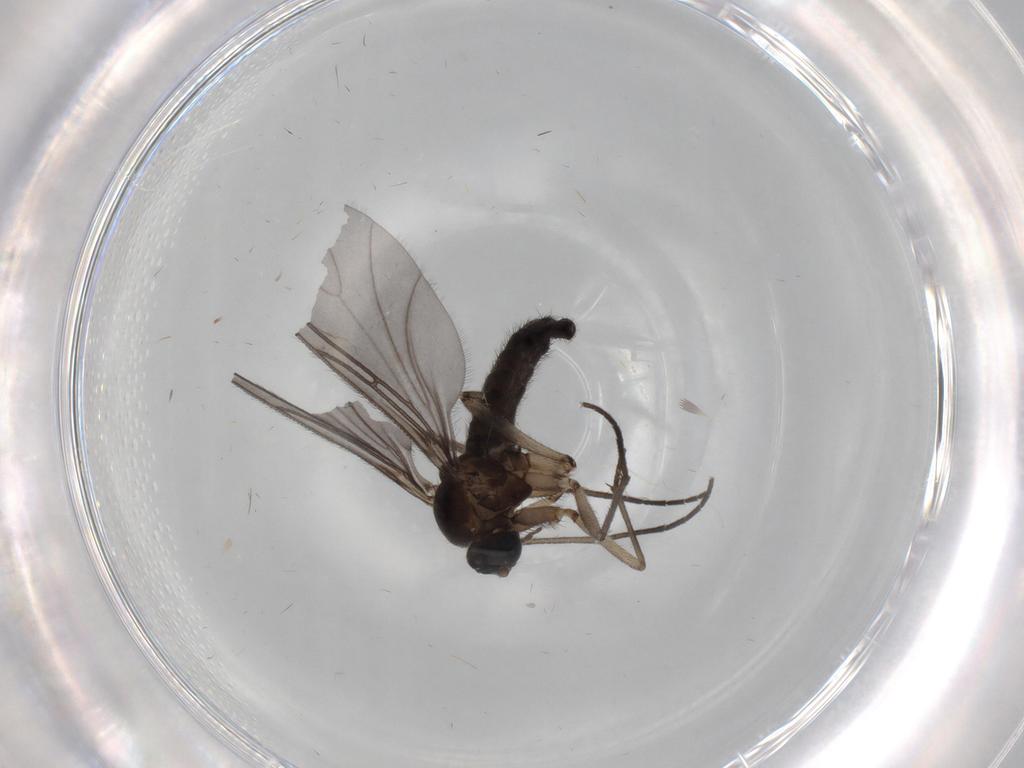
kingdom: Animalia
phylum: Arthropoda
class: Insecta
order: Diptera
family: Sciaridae
